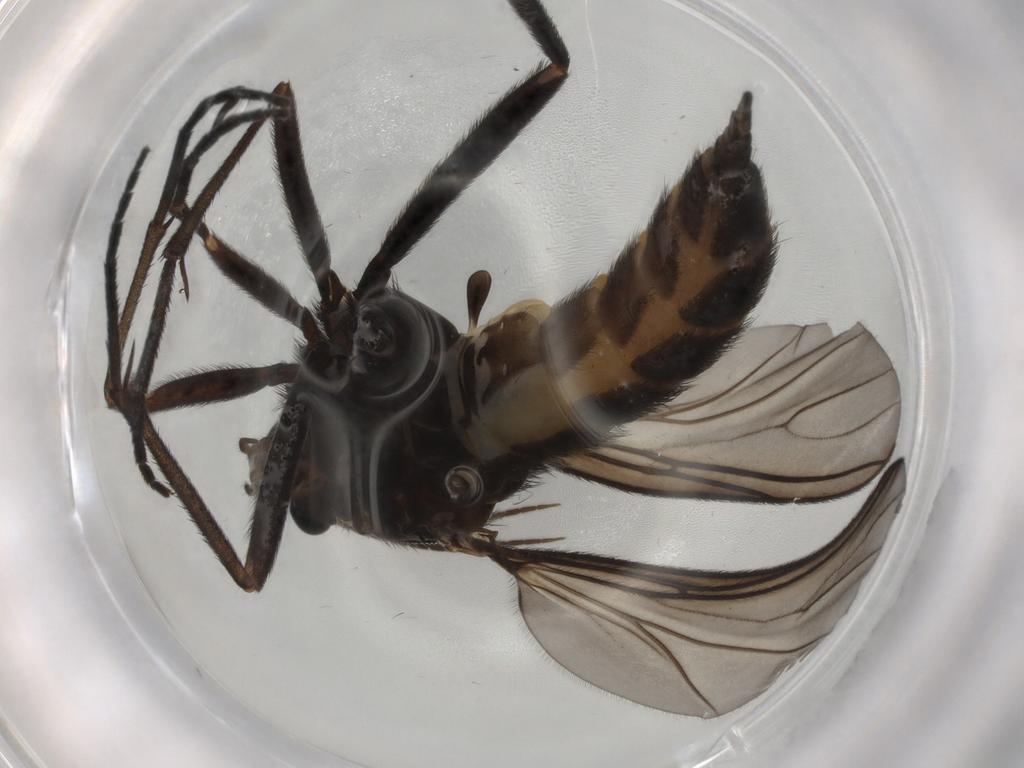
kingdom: Animalia
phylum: Arthropoda
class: Insecta
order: Diptera
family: Sciaridae
